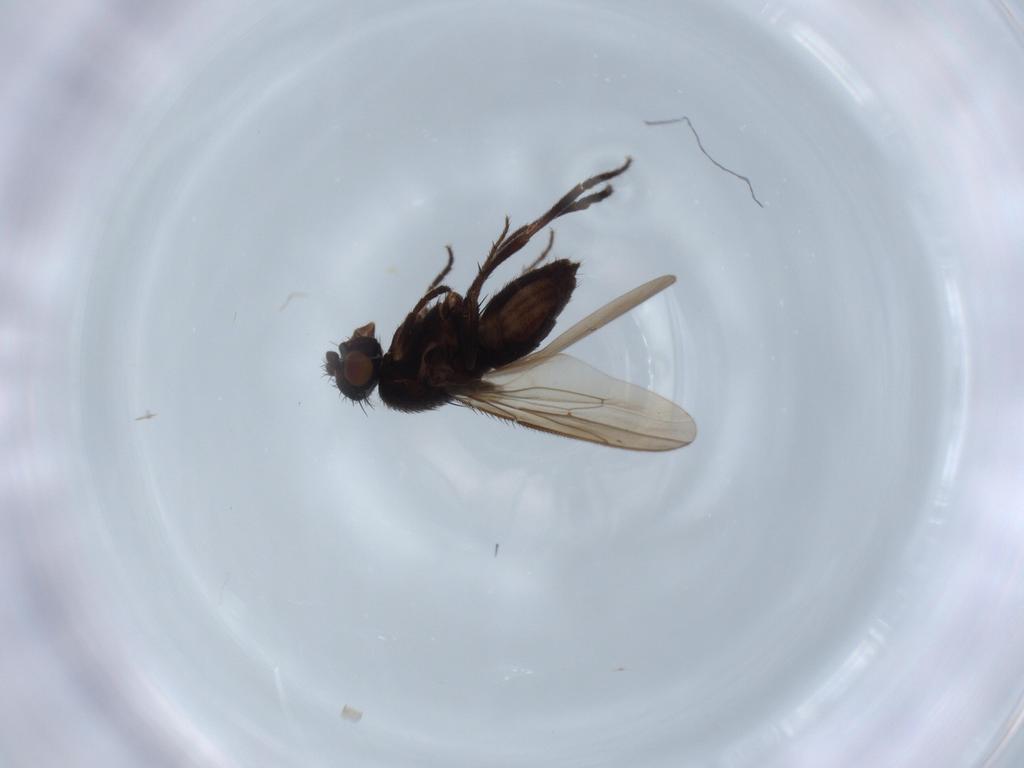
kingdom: Animalia
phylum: Arthropoda
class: Insecta
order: Diptera
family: Sphaeroceridae
